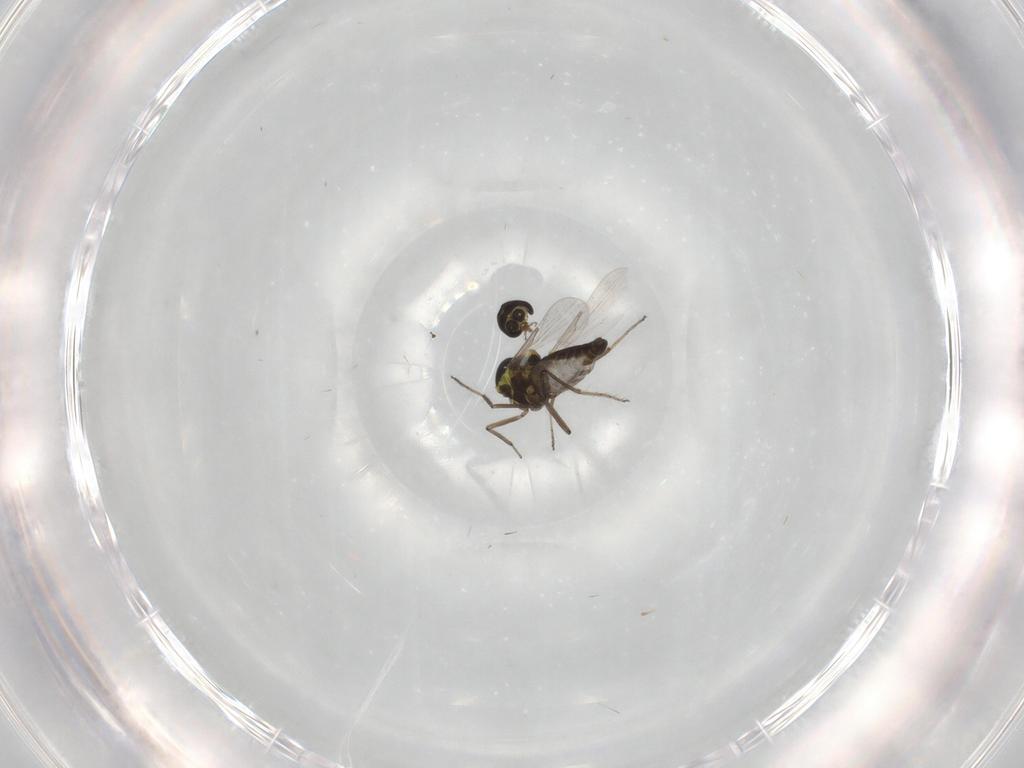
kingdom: Animalia
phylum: Arthropoda
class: Insecta
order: Diptera
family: Ceratopogonidae
